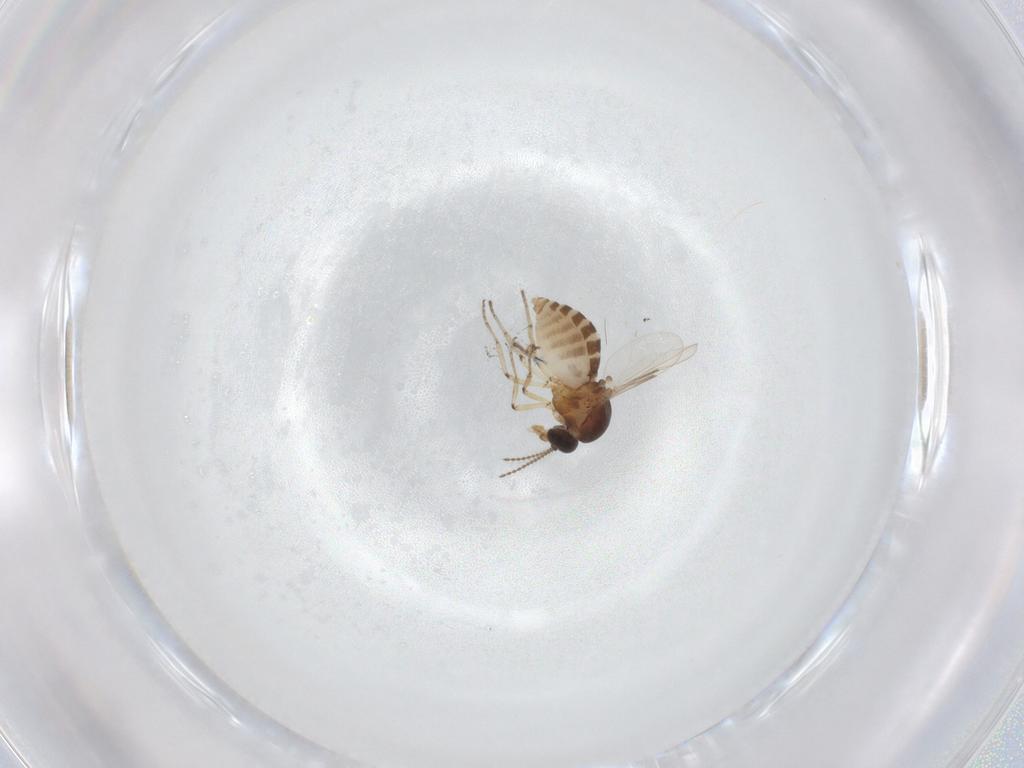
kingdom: Animalia
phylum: Arthropoda
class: Insecta
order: Diptera
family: Ceratopogonidae
